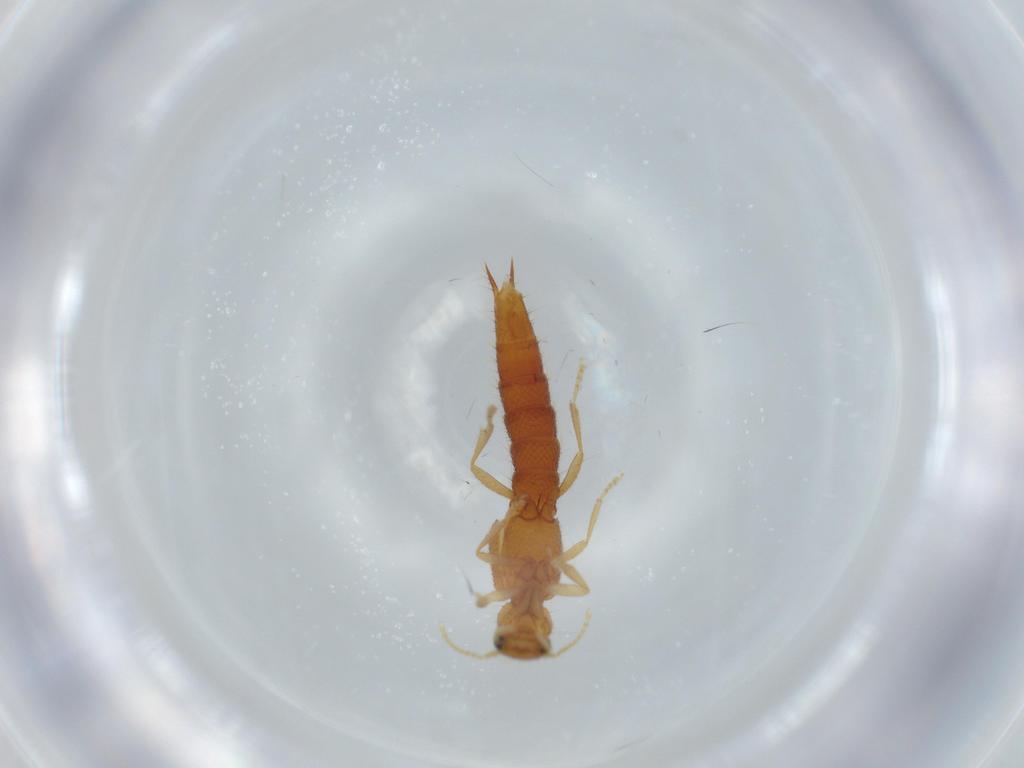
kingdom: Animalia
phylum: Arthropoda
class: Insecta
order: Coleoptera
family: Staphylinidae
